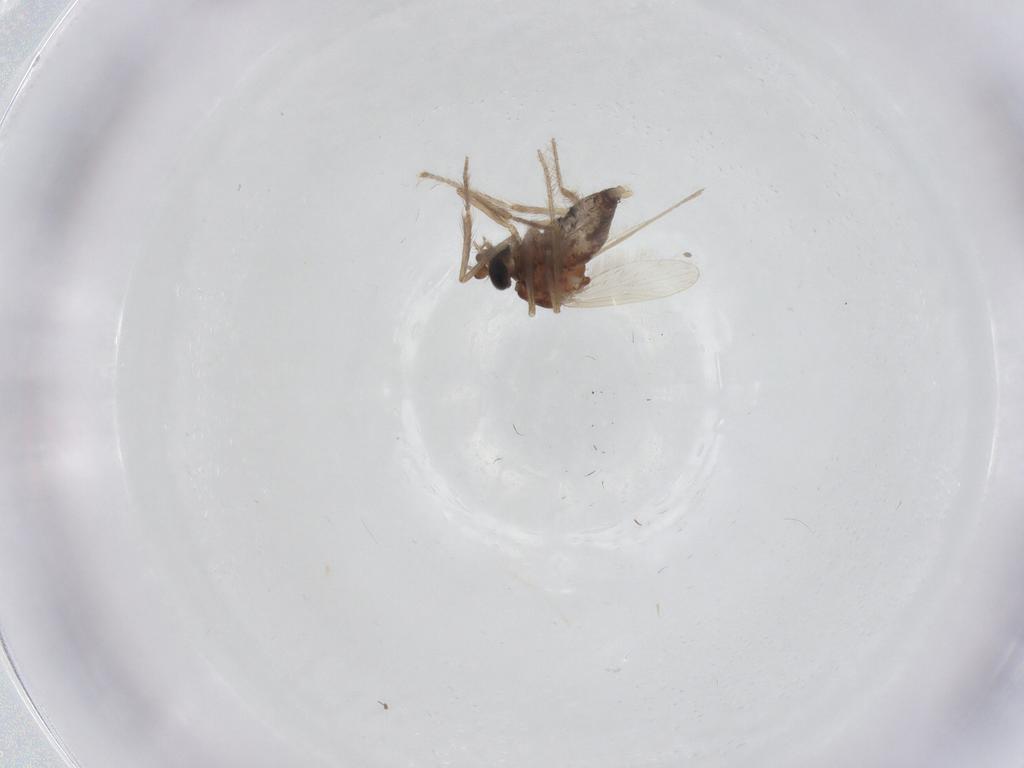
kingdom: Animalia
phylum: Arthropoda
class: Insecta
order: Diptera
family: Corethrellidae
